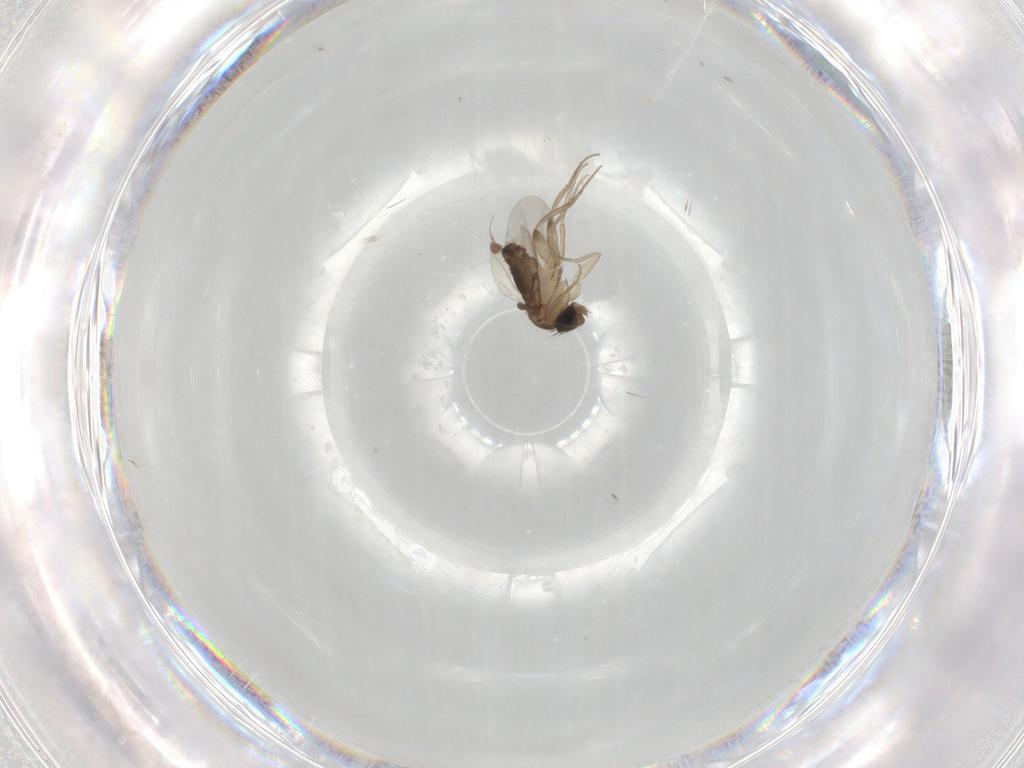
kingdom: Animalia
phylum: Arthropoda
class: Insecta
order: Diptera
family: Phoridae
